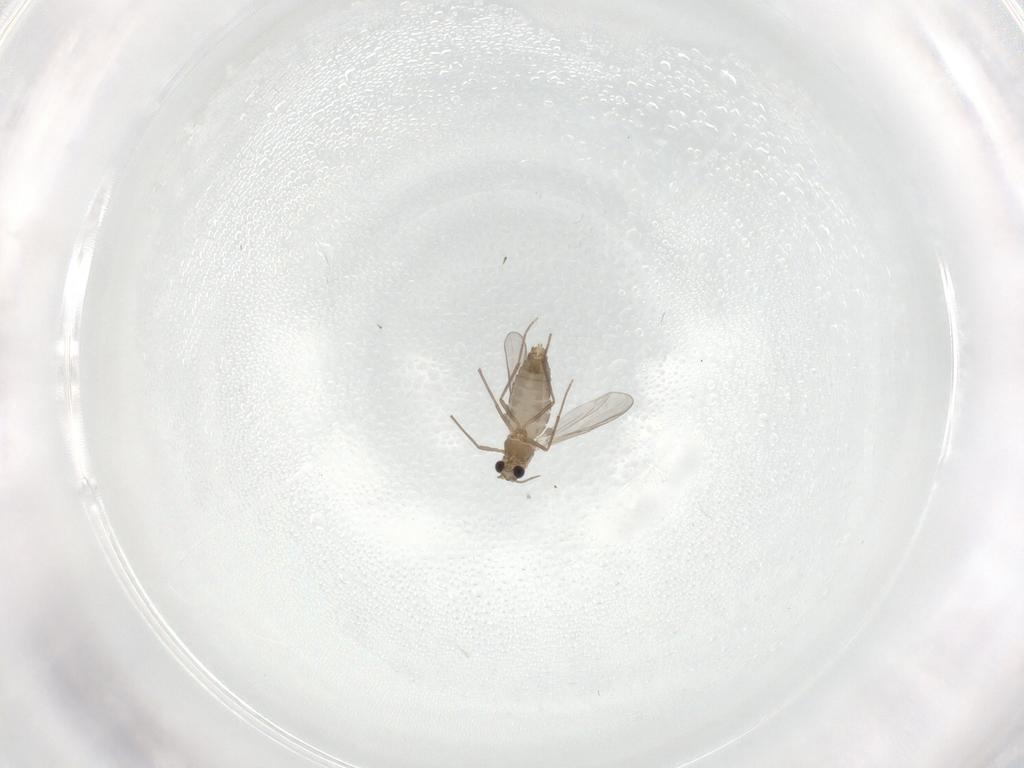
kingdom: Animalia
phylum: Arthropoda
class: Insecta
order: Diptera
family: Chironomidae
